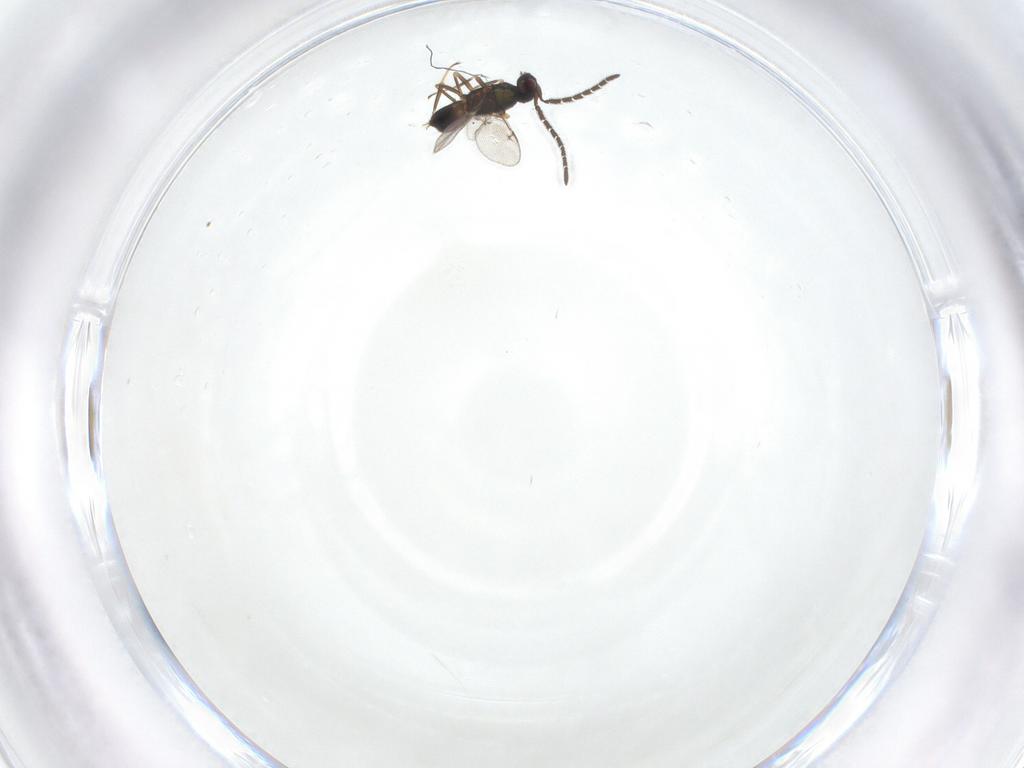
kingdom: Animalia
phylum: Arthropoda
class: Insecta
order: Hymenoptera
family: Encyrtidae
